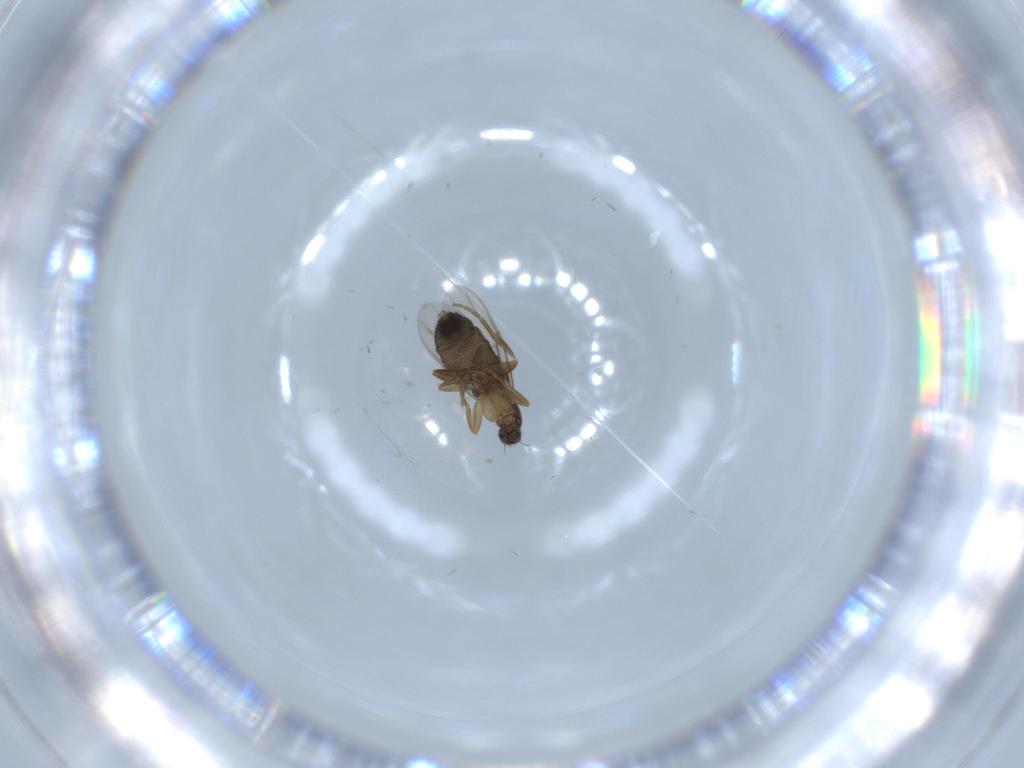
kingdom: Animalia
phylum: Arthropoda
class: Insecta
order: Diptera
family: Phoridae
